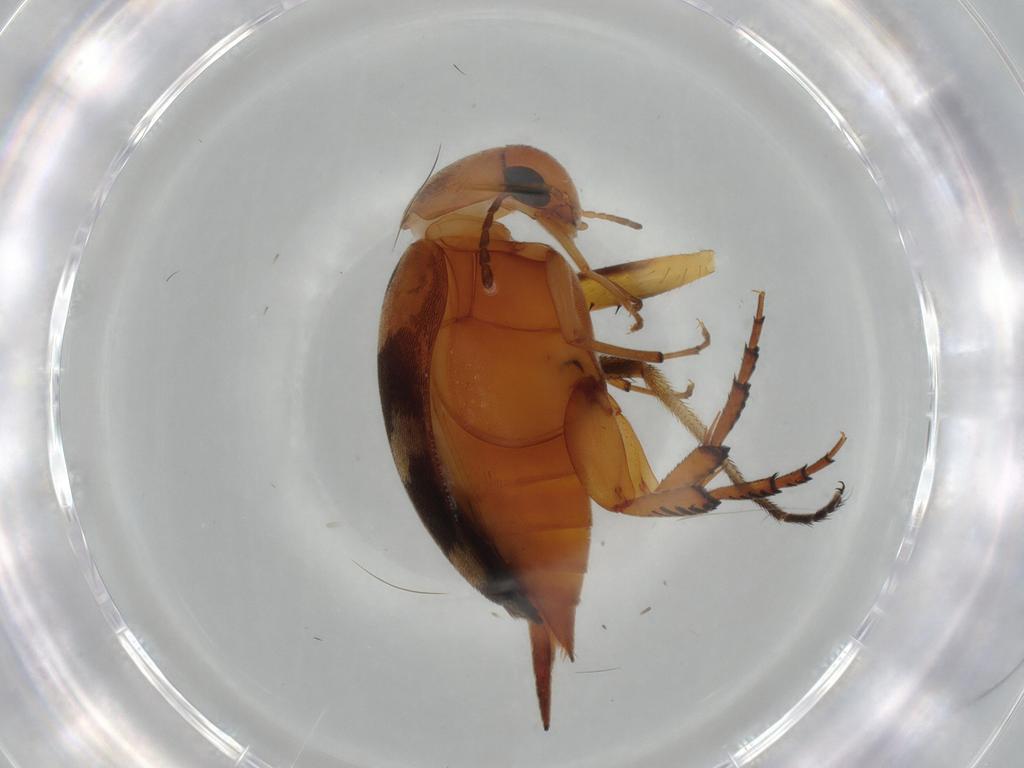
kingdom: Animalia
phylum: Arthropoda
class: Insecta
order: Coleoptera
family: Mordellidae
